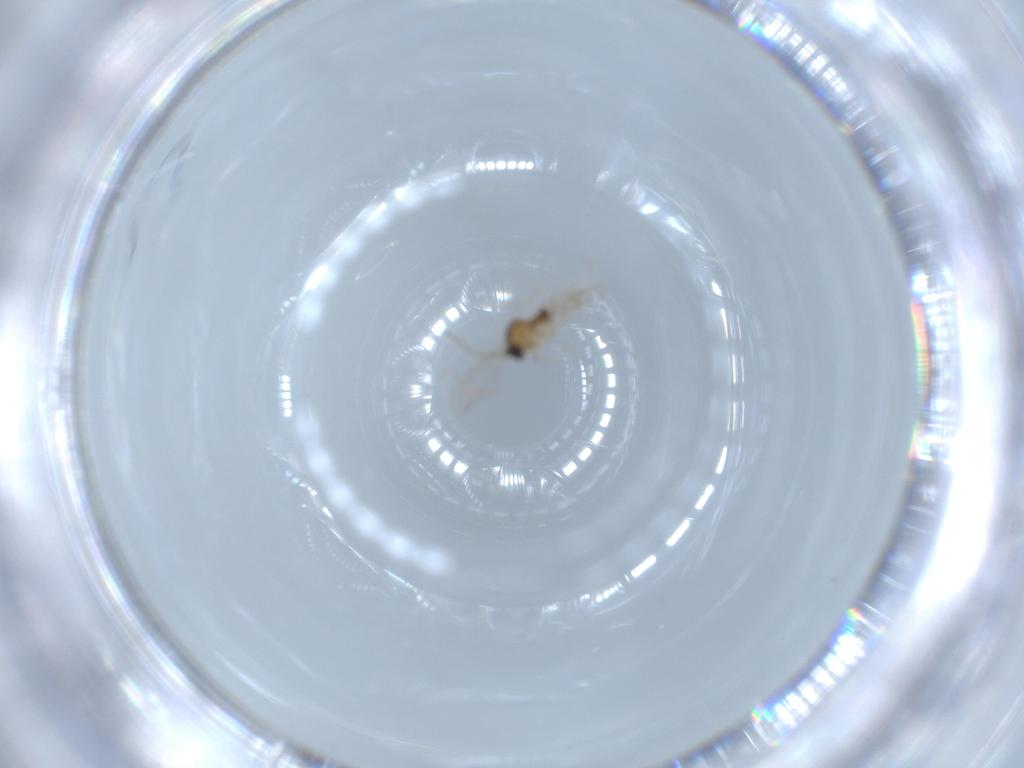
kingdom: Animalia
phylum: Arthropoda
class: Insecta
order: Diptera
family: Cecidomyiidae
